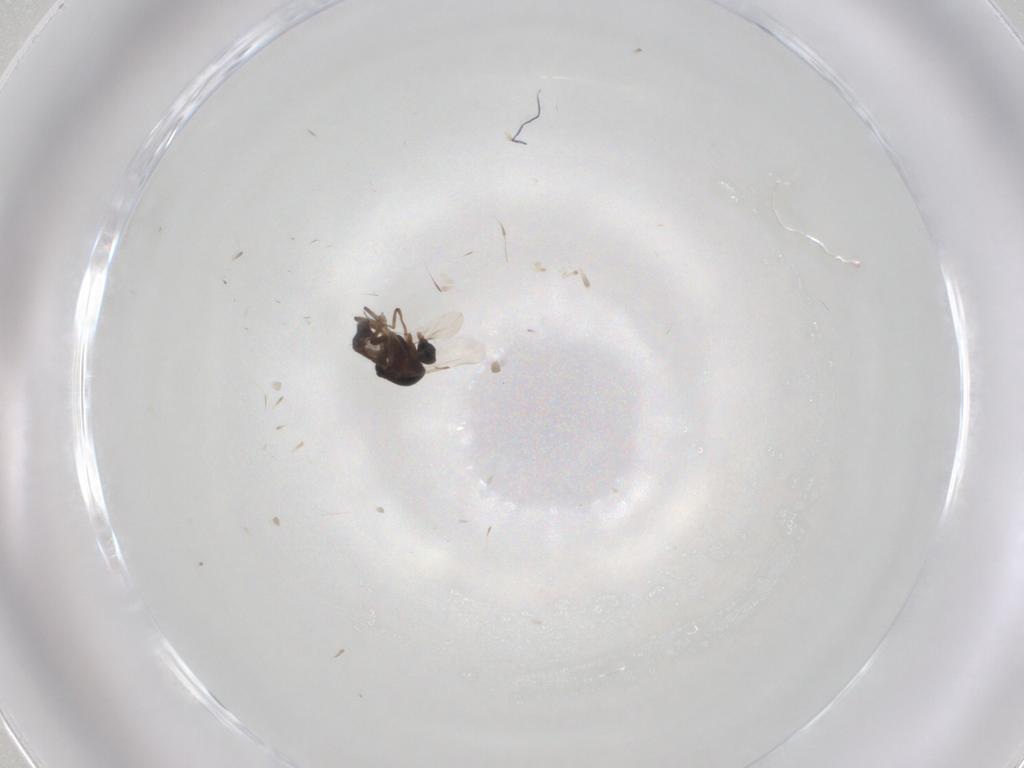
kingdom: Animalia
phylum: Arthropoda
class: Insecta
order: Diptera
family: Ceratopogonidae
